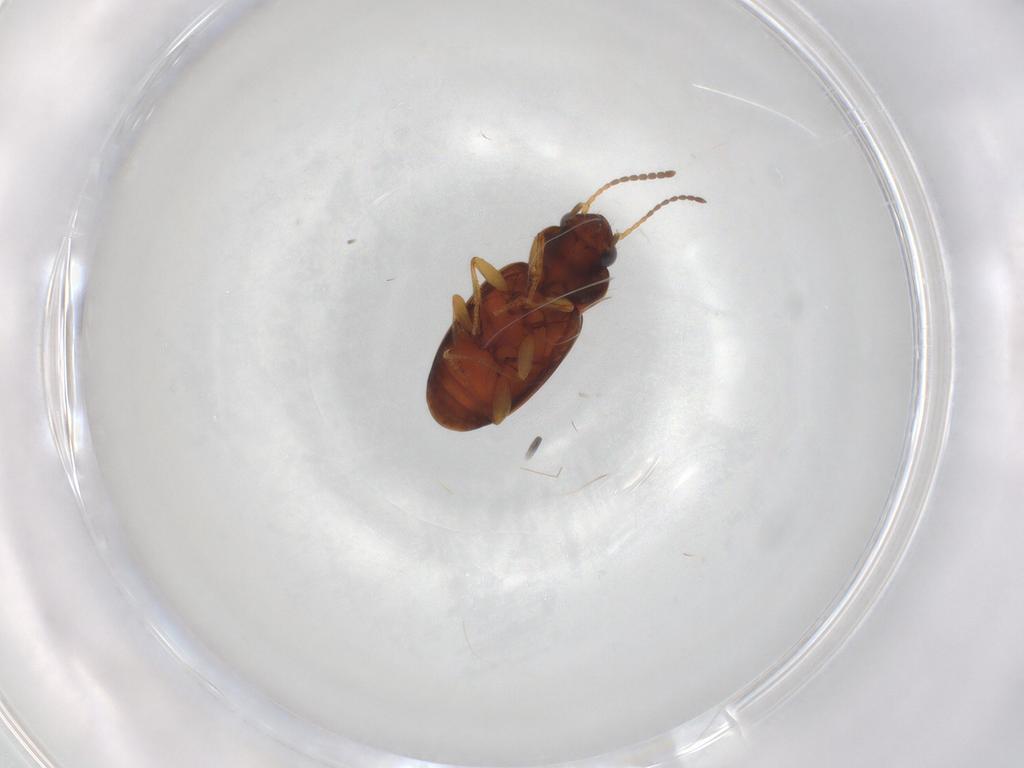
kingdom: Animalia
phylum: Arthropoda
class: Insecta
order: Coleoptera
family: Carabidae
